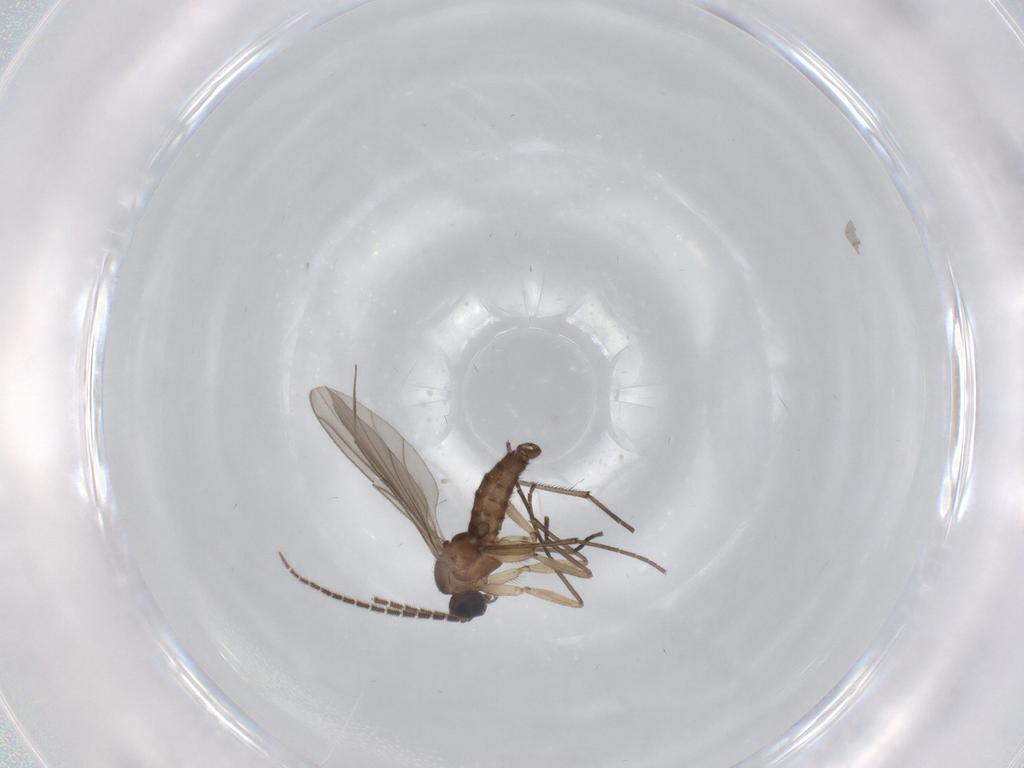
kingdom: Animalia
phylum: Arthropoda
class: Insecta
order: Diptera
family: Sciaridae
